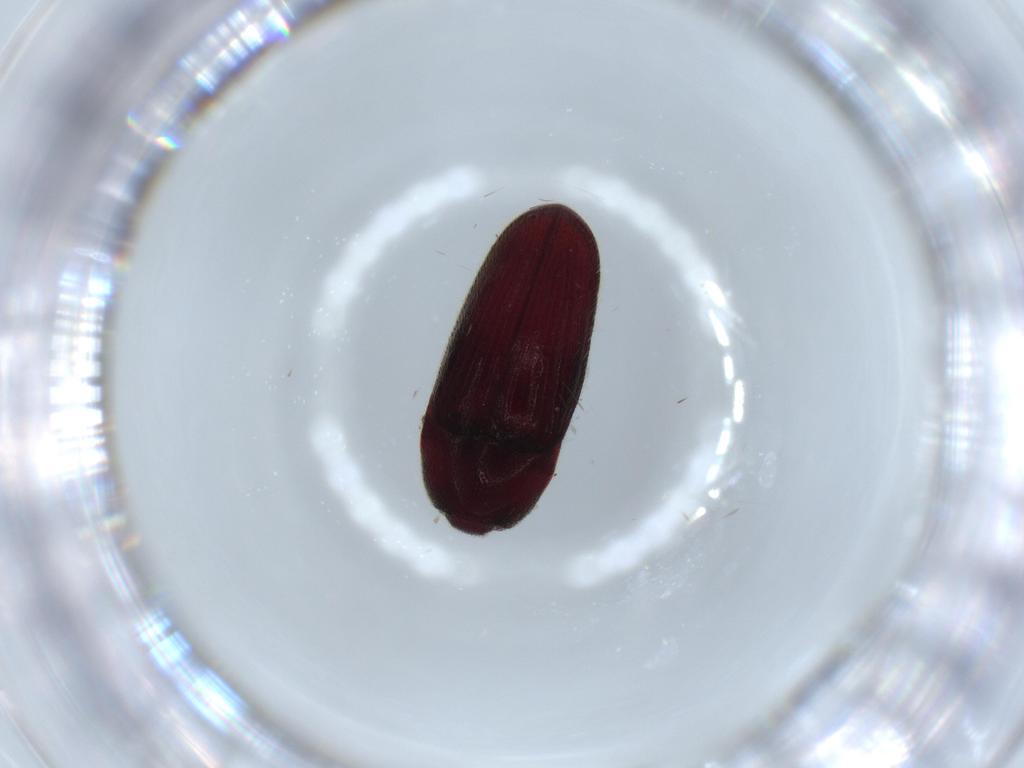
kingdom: Animalia
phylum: Arthropoda
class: Insecta
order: Coleoptera
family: Throscidae
